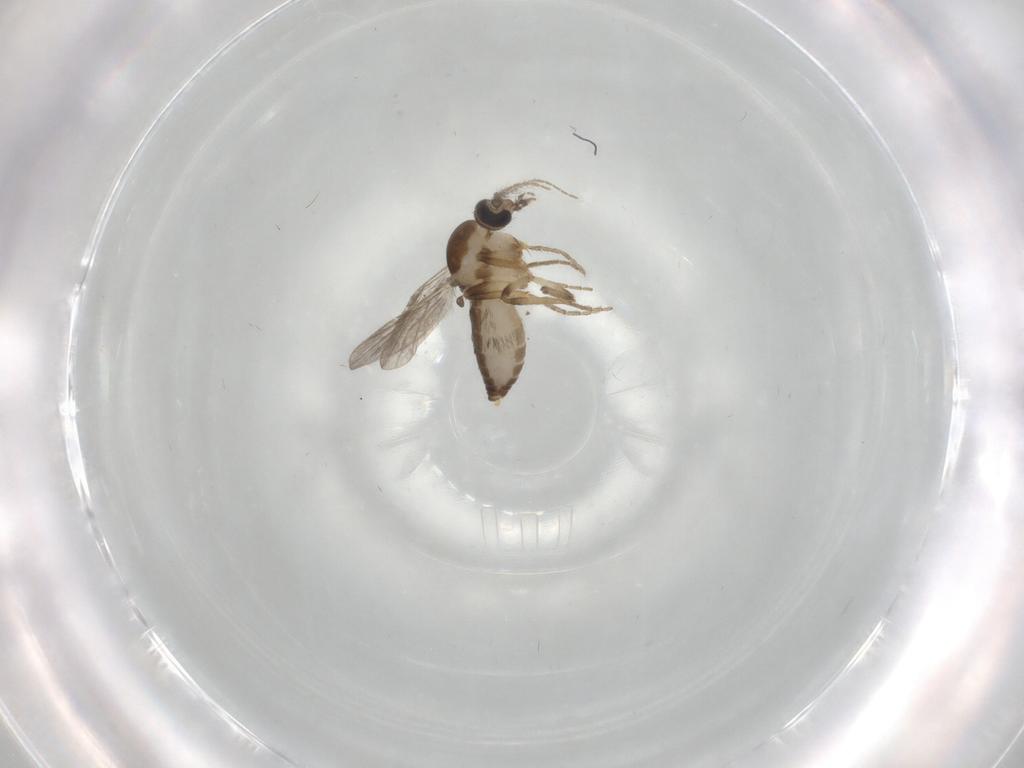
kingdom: Animalia
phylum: Arthropoda
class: Insecta
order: Diptera
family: Ceratopogonidae
